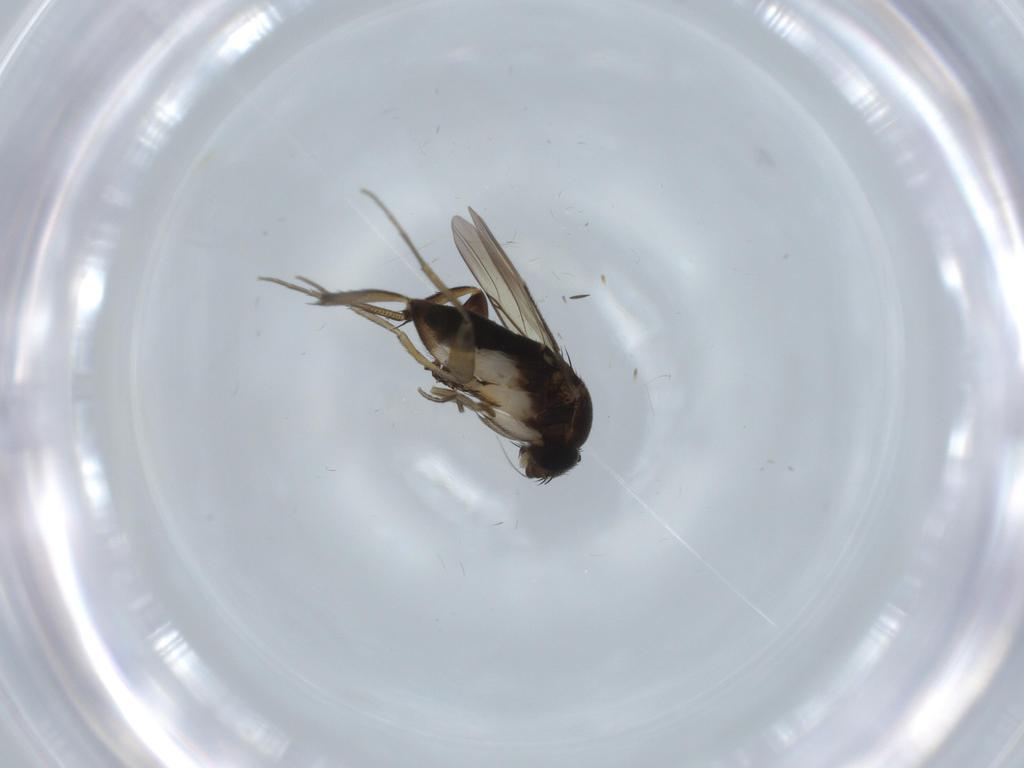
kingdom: Animalia
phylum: Arthropoda
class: Insecta
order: Diptera
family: Phoridae
